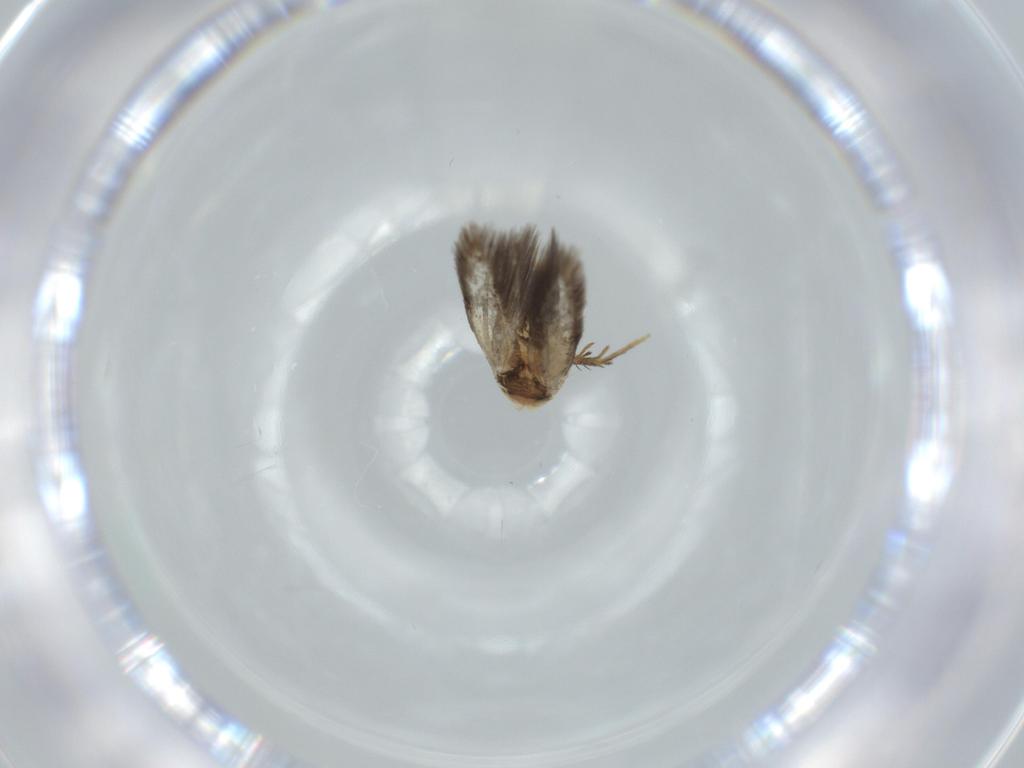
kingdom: Animalia
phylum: Arthropoda
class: Insecta
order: Lepidoptera
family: Nepticulidae
